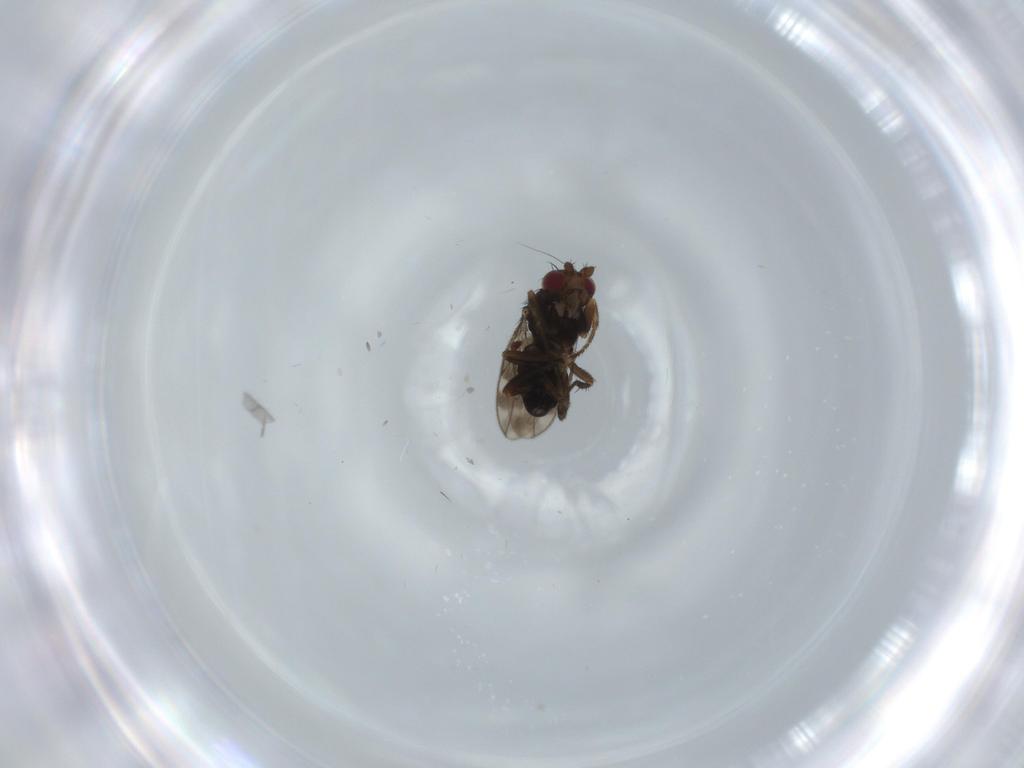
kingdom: Animalia
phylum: Arthropoda
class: Insecta
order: Diptera
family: Sphaeroceridae
